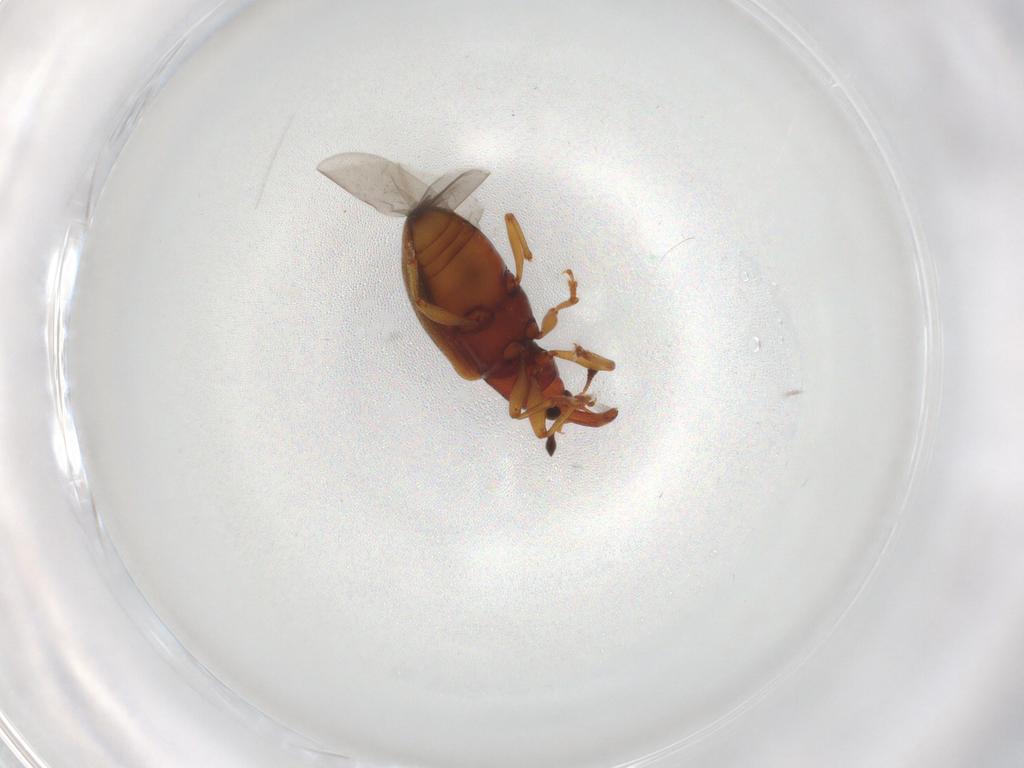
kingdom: Animalia
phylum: Arthropoda
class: Insecta
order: Coleoptera
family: Curculionidae
